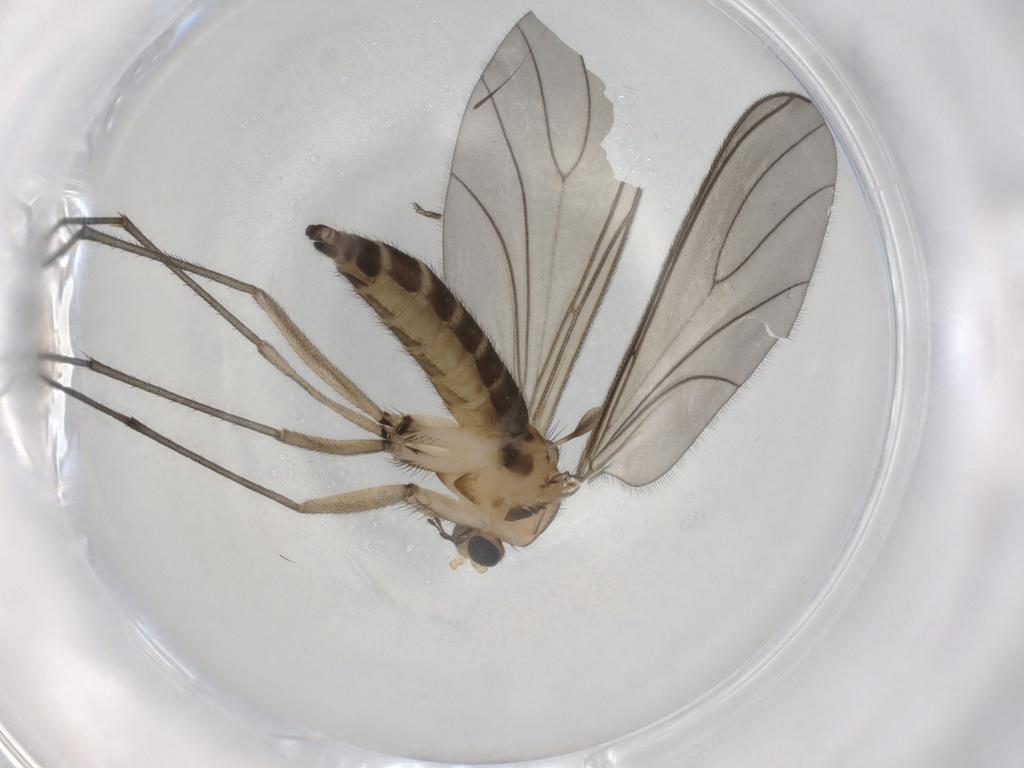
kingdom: Animalia
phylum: Arthropoda
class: Insecta
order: Diptera
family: Sciaridae
